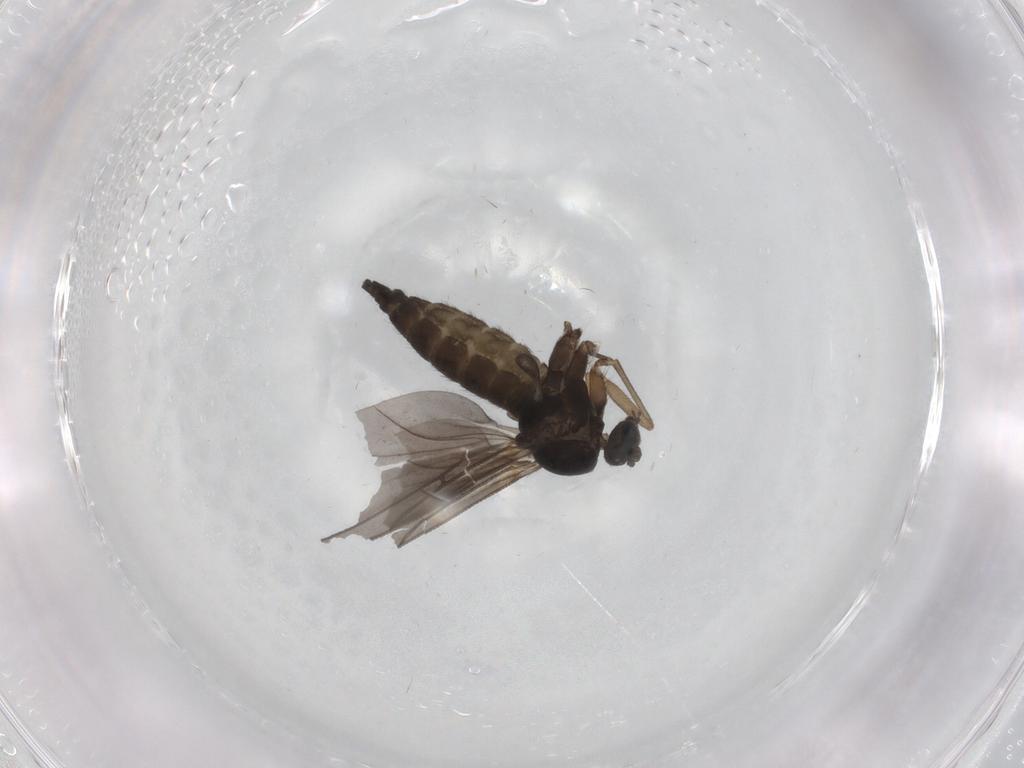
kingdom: Animalia
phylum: Arthropoda
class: Insecta
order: Diptera
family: Sciaridae
